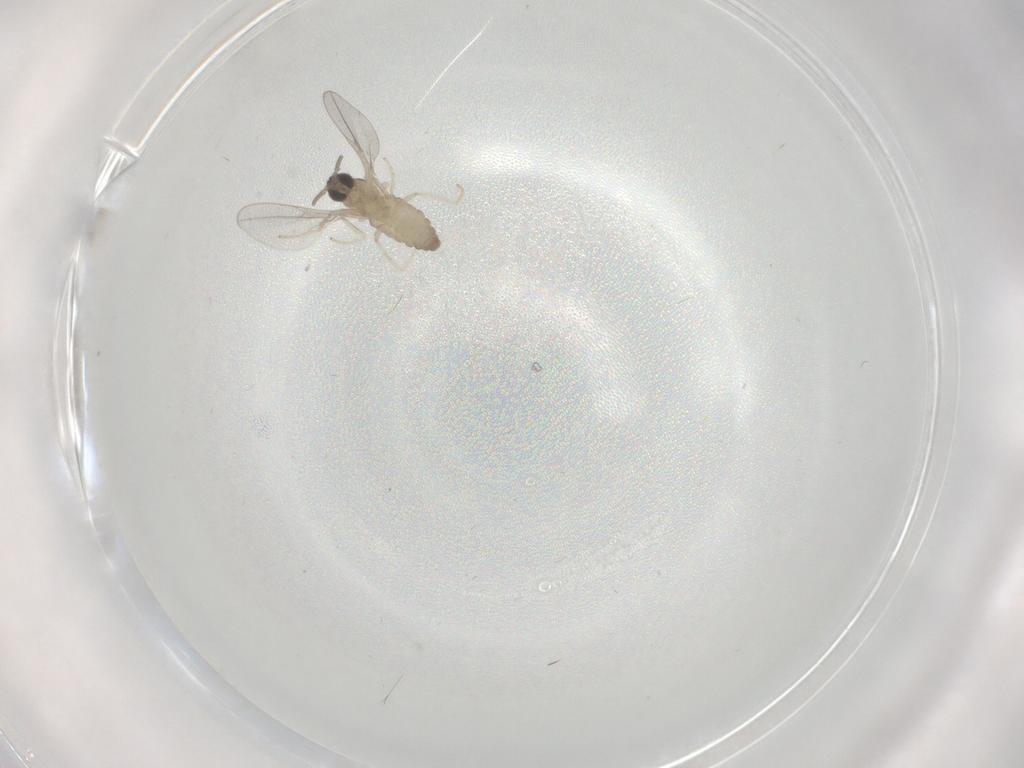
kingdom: Animalia
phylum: Arthropoda
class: Insecta
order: Diptera
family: Cecidomyiidae
